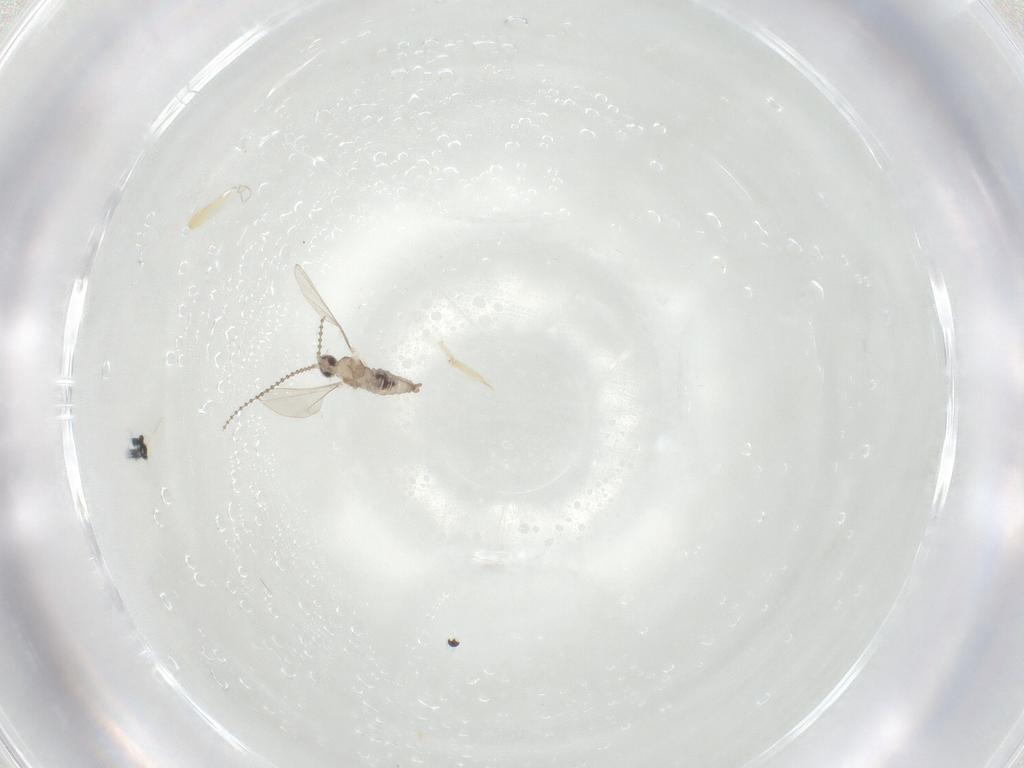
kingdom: Animalia
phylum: Arthropoda
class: Insecta
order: Diptera
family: Cecidomyiidae
